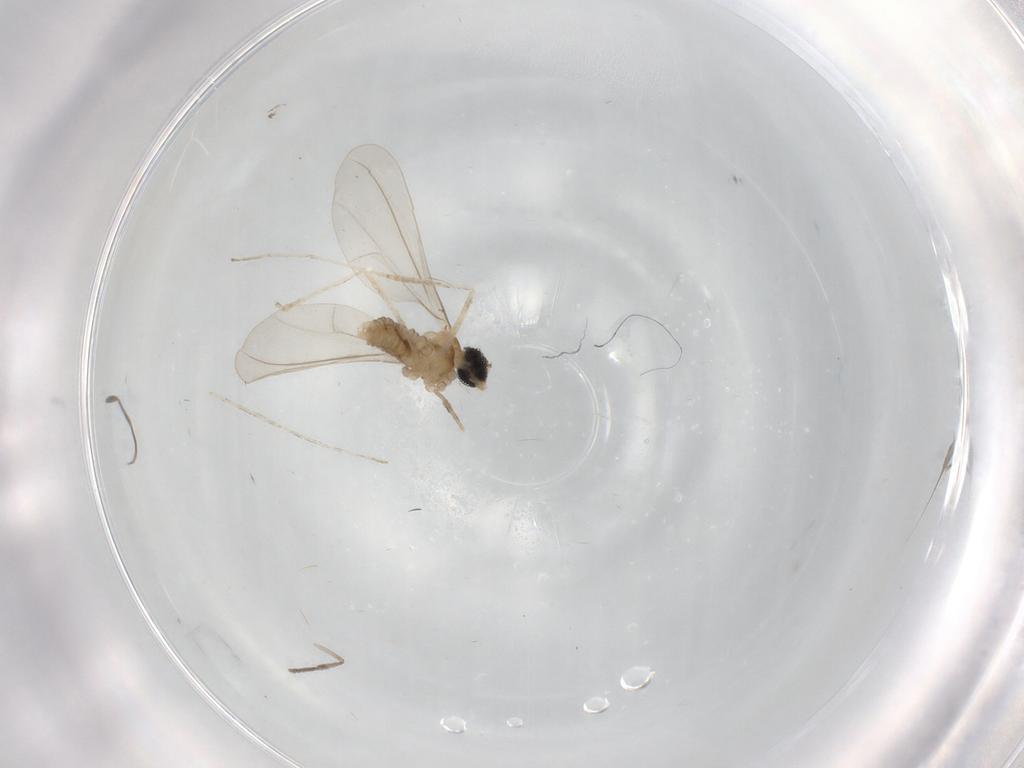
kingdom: Animalia
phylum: Arthropoda
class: Insecta
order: Diptera
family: Cecidomyiidae
